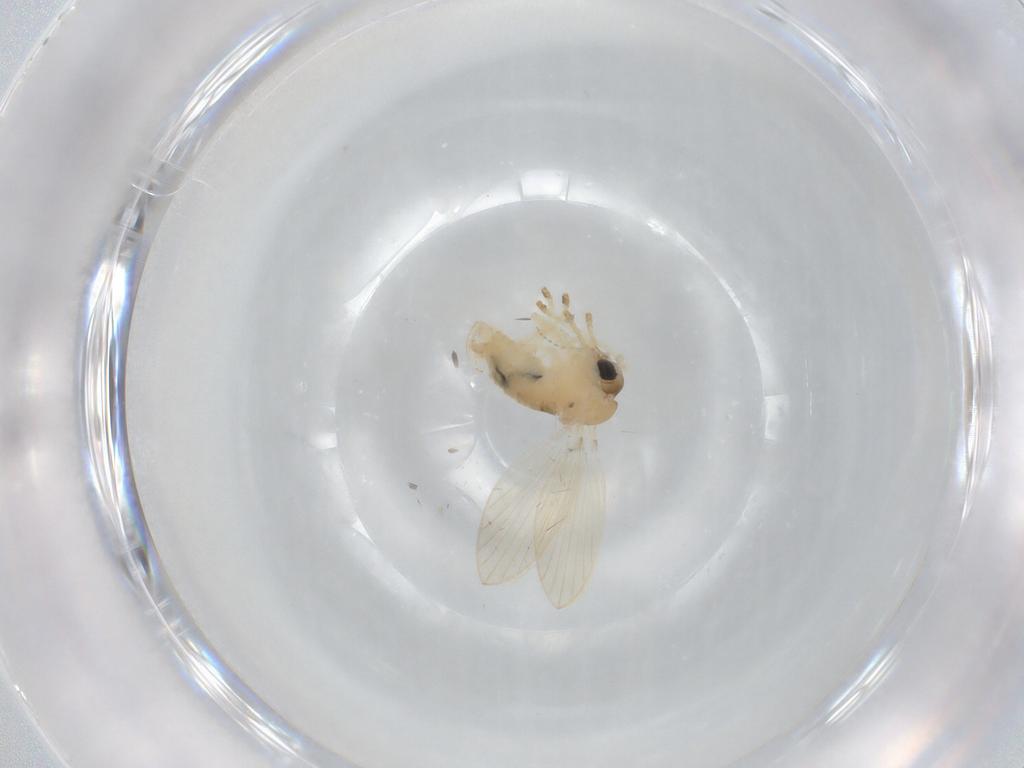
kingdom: Animalia
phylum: Arthropoda
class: Insecta
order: Diptera
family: Psychodidae
